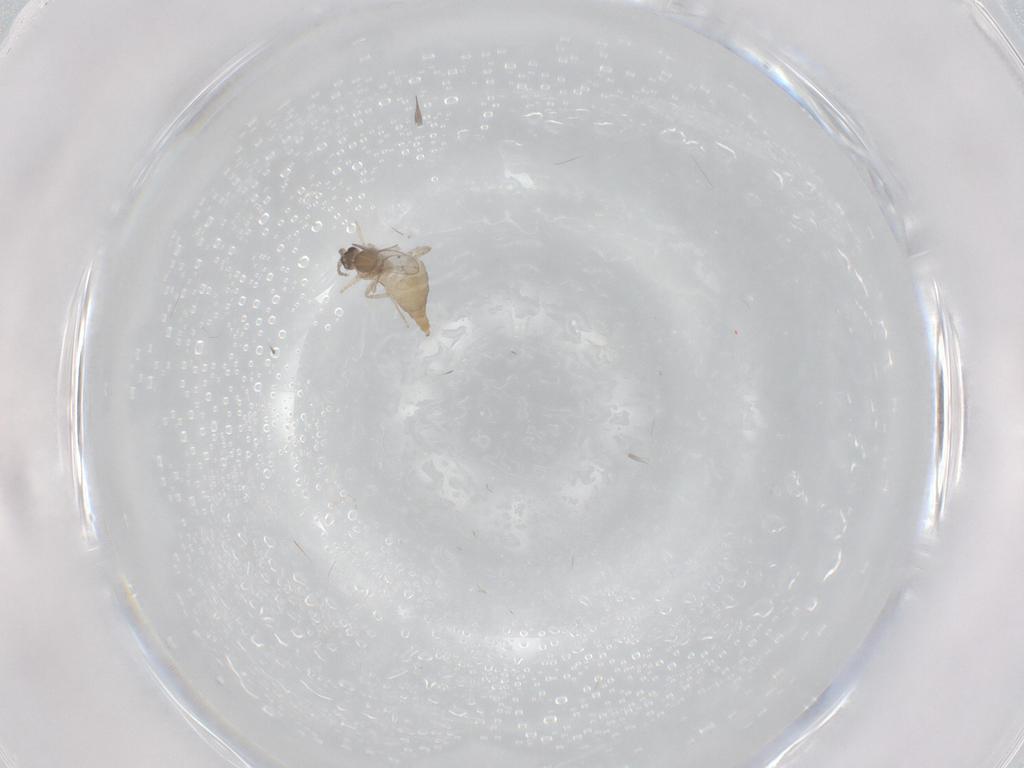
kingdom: Animalia
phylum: Arthropoda
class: Insecta
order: Diptera
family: Cecidomyiidae
